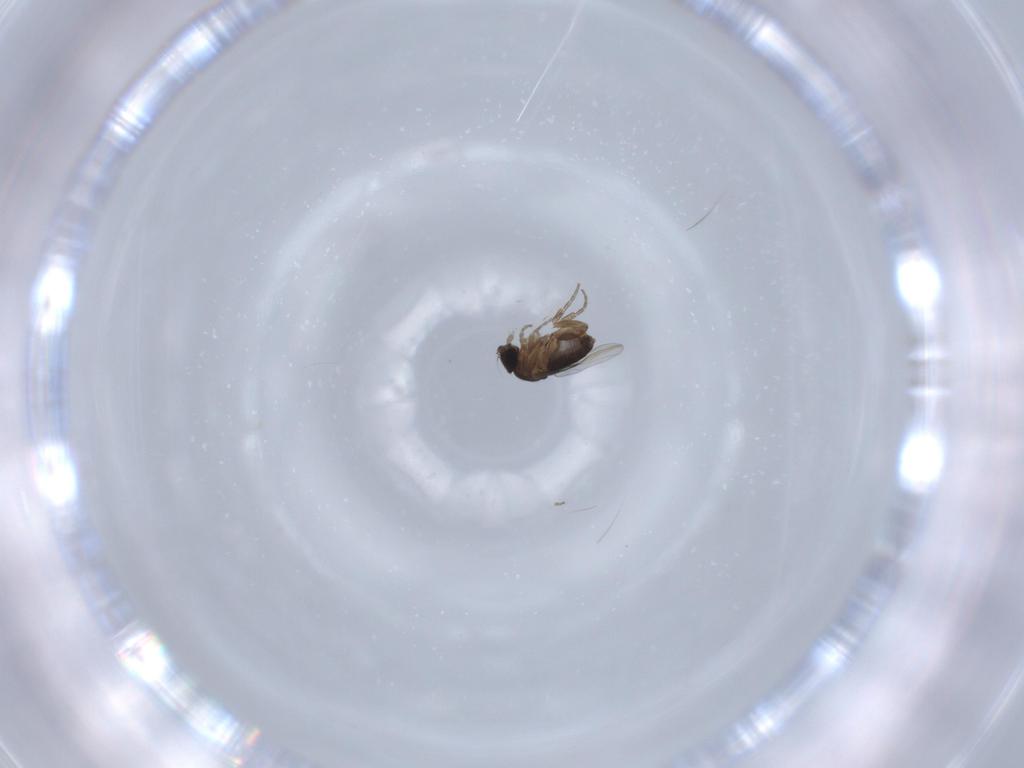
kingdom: Animalia
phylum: Arthropoda
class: Insecta
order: Diptera
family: Phoridae
